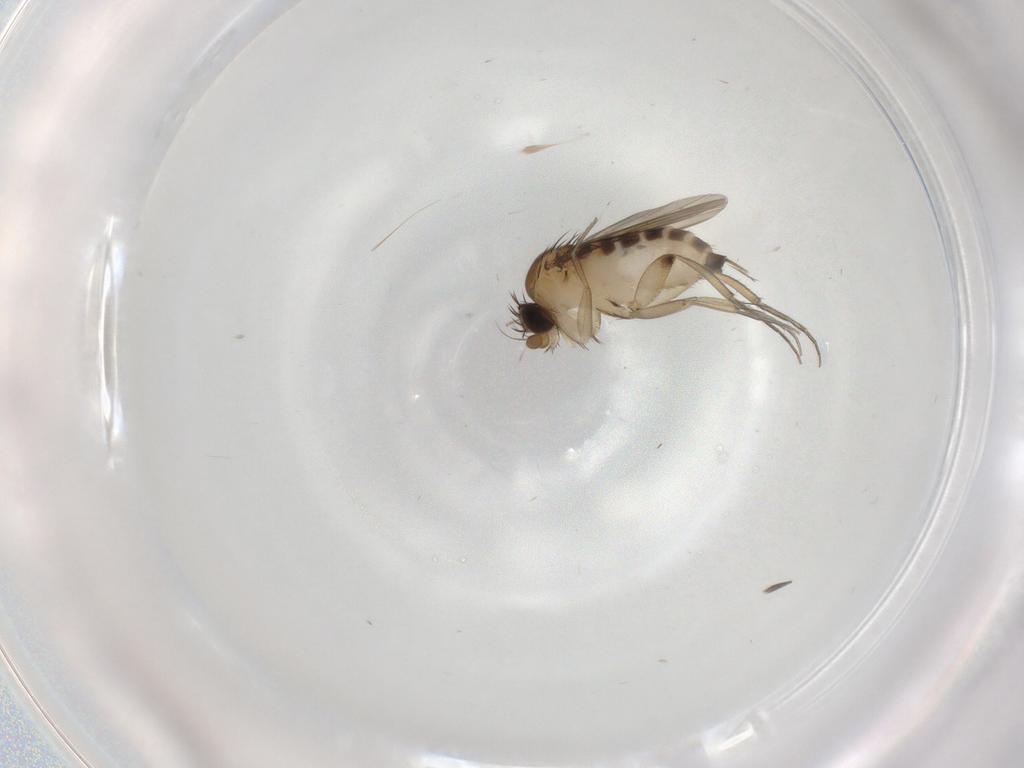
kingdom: Animalia
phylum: Arthropoda
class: Insecta
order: Diptera
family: Phoridae
